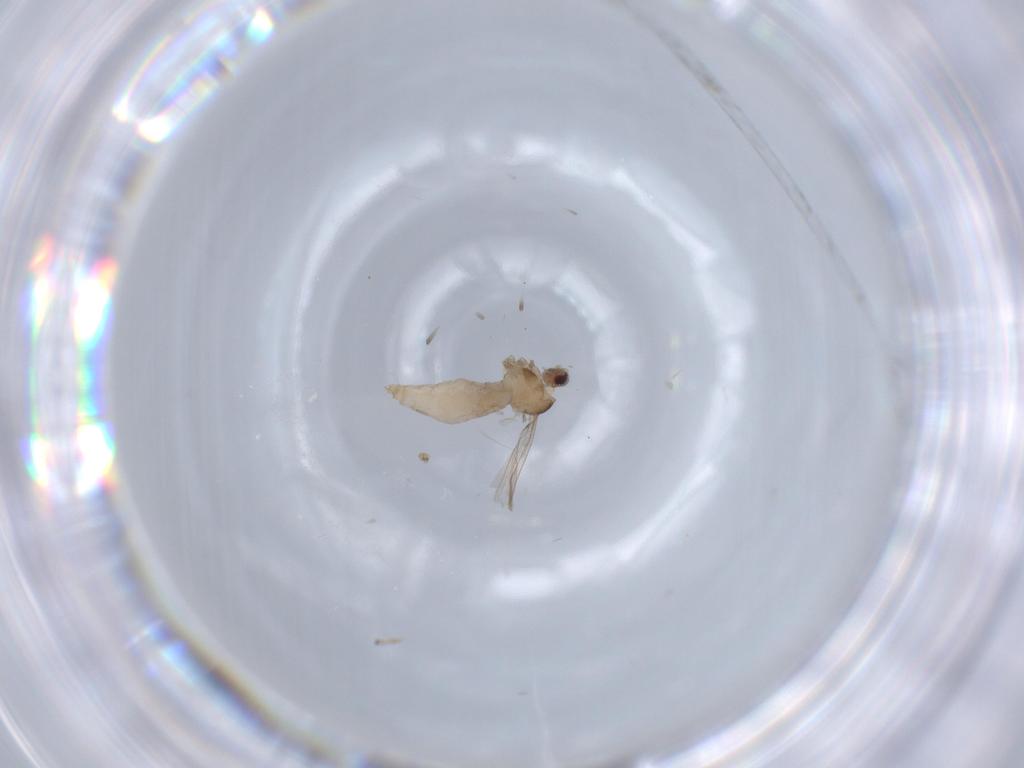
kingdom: Animalia
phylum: Arthropoda
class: Insecta
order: Diptera
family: Cecidomyiidae
